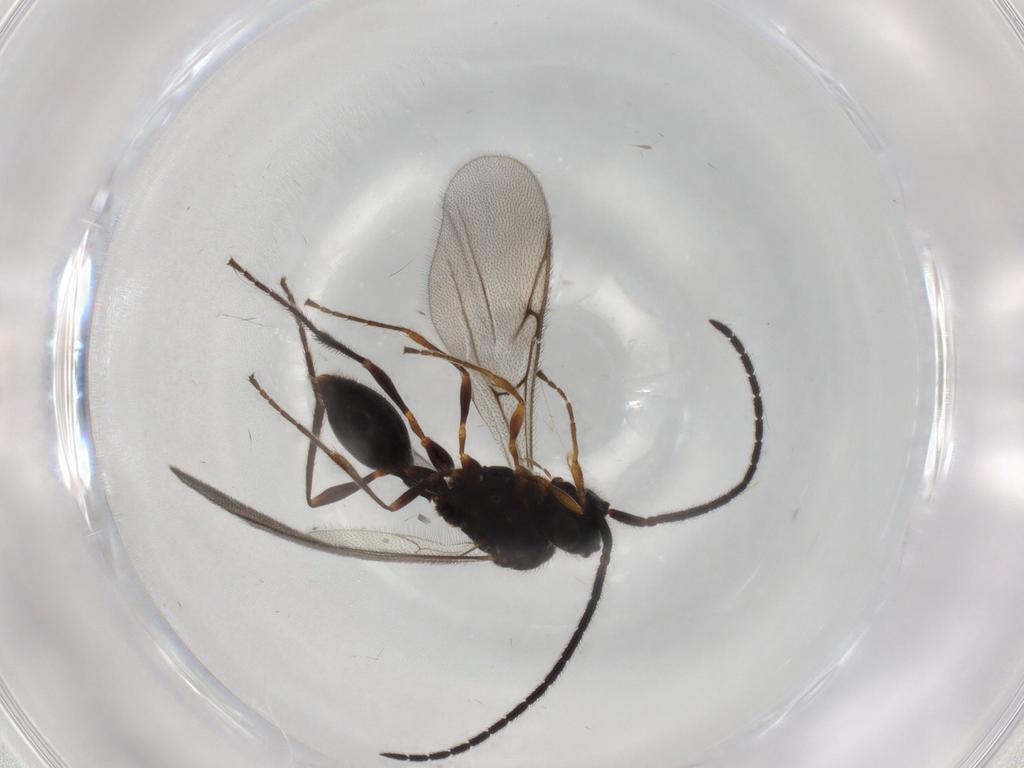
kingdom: Animalia
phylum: Arthropoda
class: Insecta
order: Hymenoptera
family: Diapriidae
